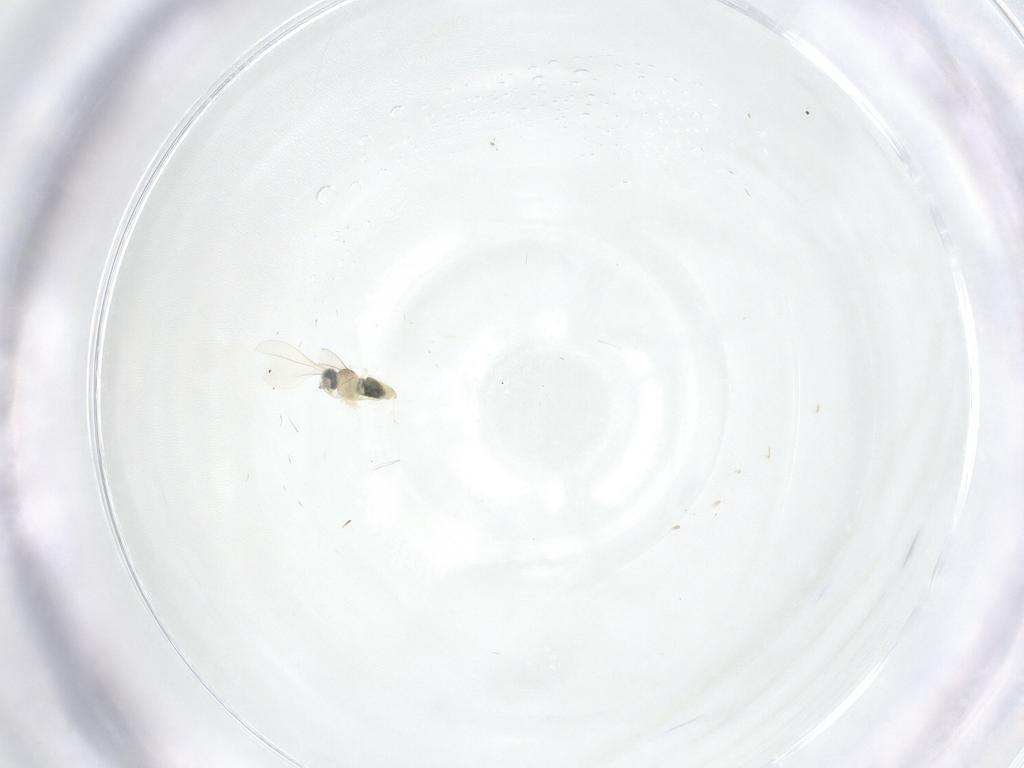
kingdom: Animalia
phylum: Arthropoda
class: Insecta
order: Diptera
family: Cecidomyiidae
